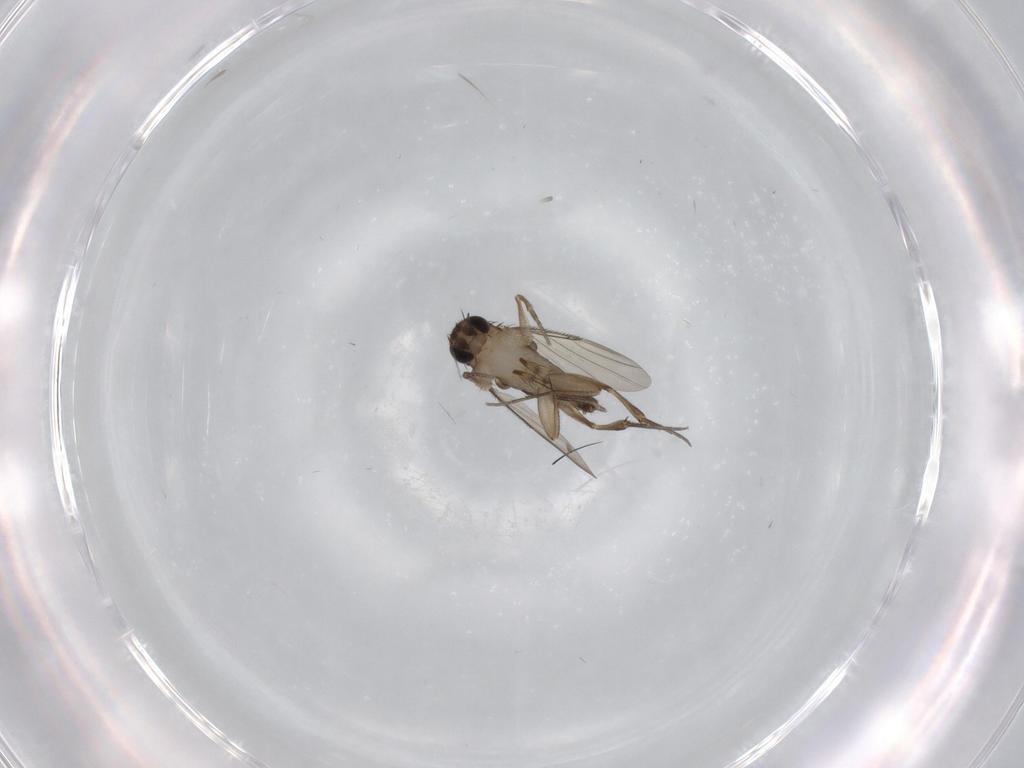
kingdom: Animalia
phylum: Arthropoda
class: Insecta
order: Diptera
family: Phoridae
